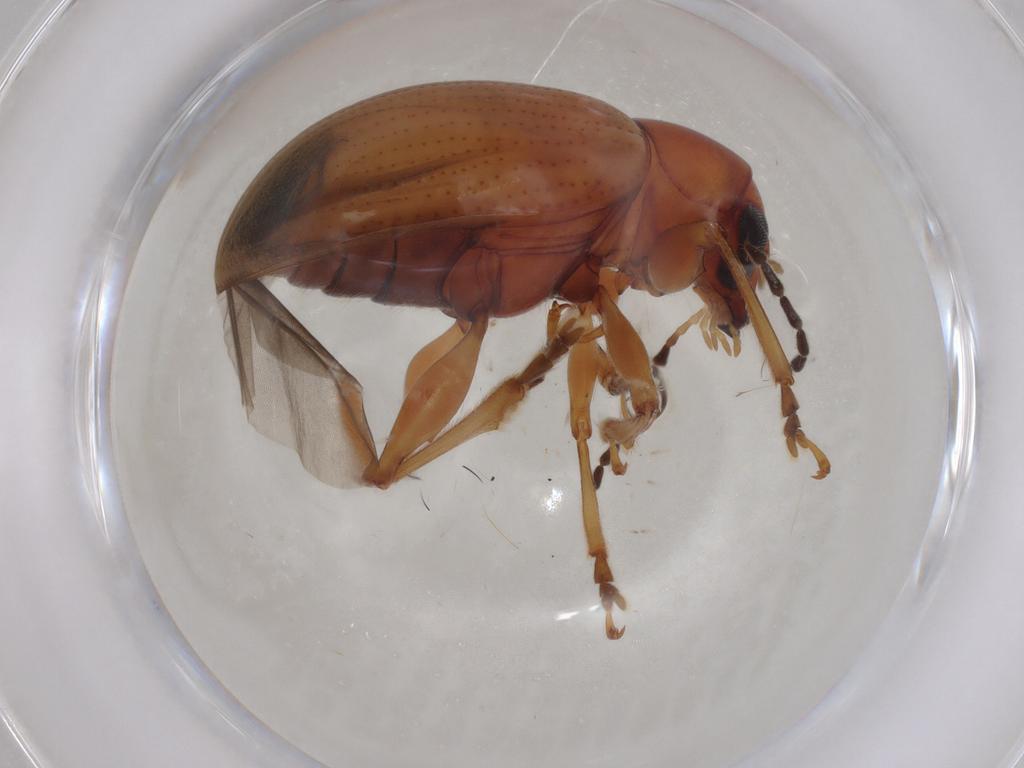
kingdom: Animalia
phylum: Arthropoda
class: Insecta
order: Coleoptera
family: Chrysomelidae
